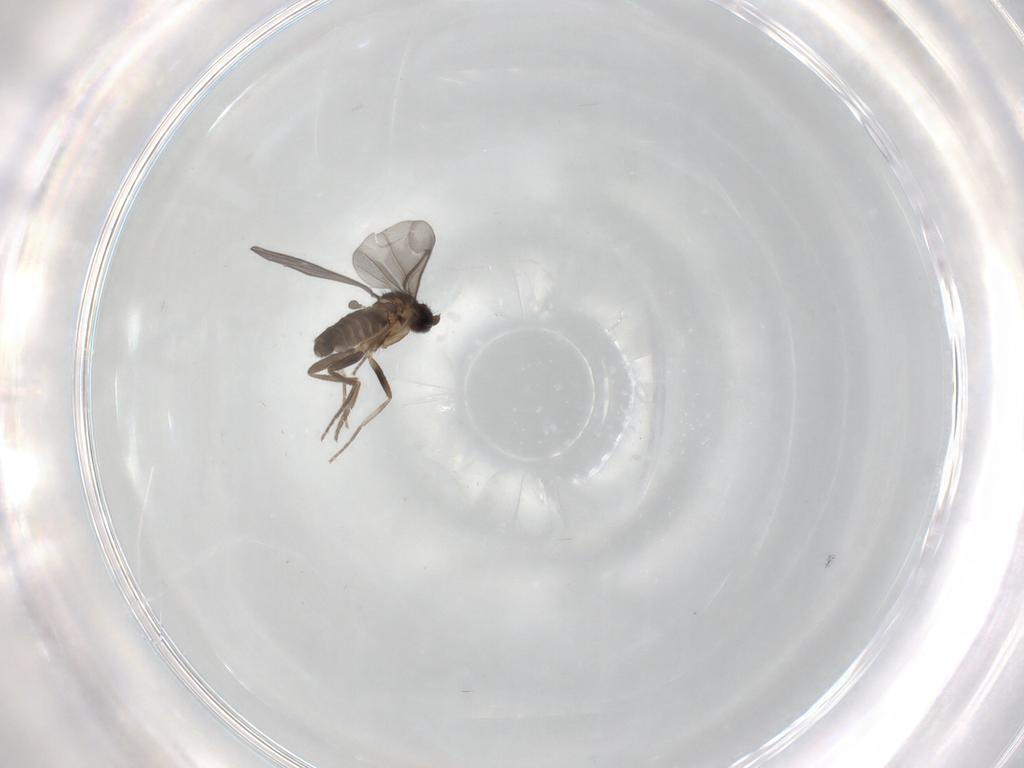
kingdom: Animalia
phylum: Arthropoda
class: Insecta
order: Diptera
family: Phoridae
